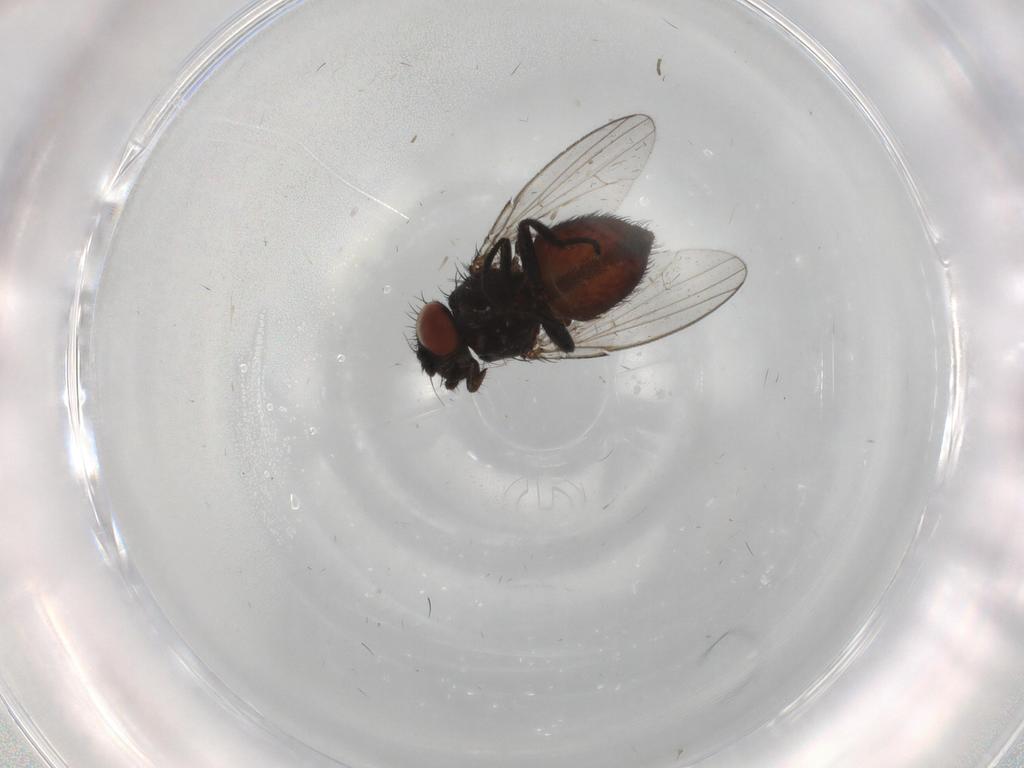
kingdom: Animalia
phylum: Arthropoda
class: Insecta
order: Diptera
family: Cecidomyiidae
